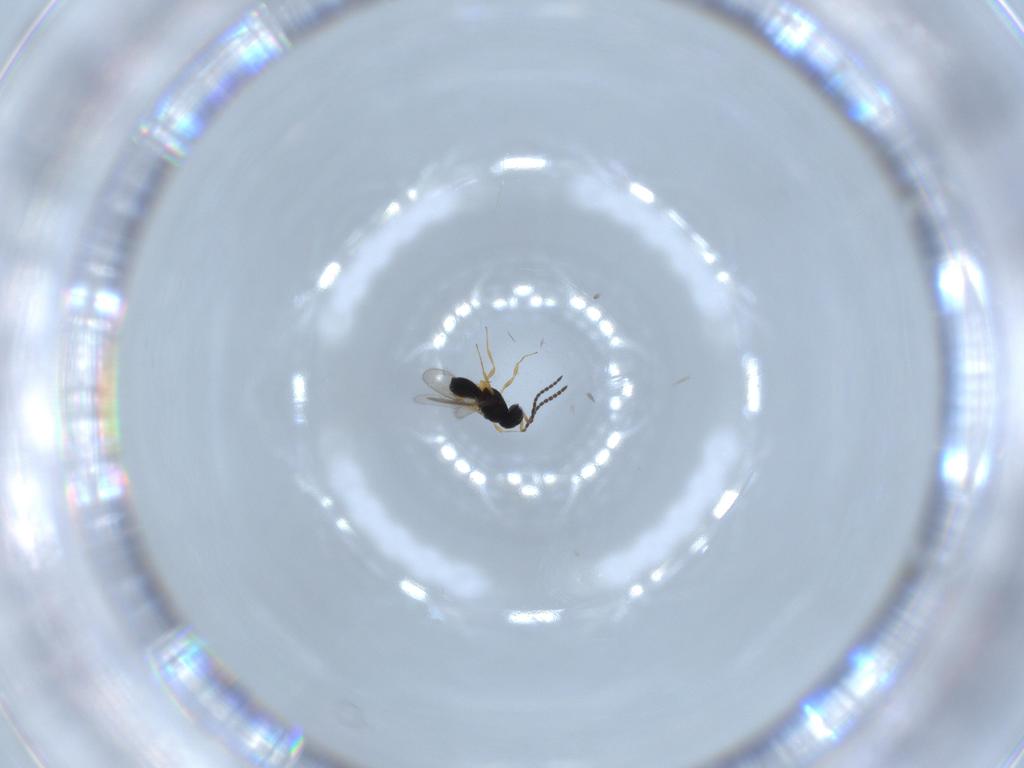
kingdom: Animalia
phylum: Arthropoda
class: Insecta
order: Hymenoptera
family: Scelionidae
